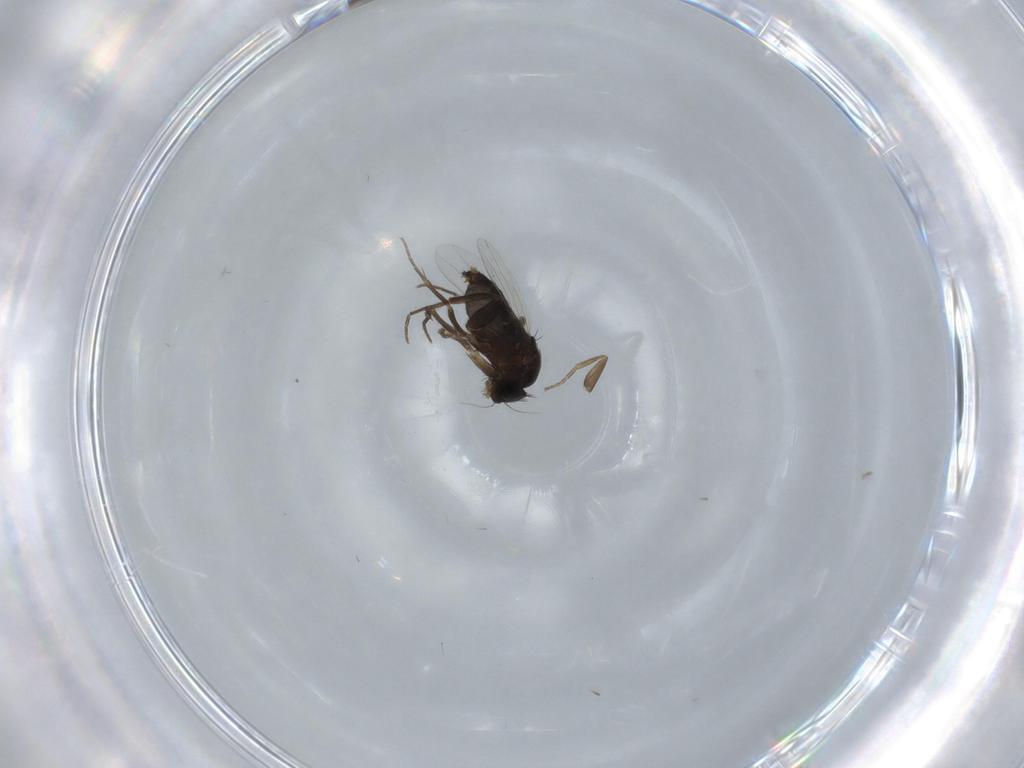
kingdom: Animalia
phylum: Arthropoda
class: Insecta
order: Diptera
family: Phoridae
